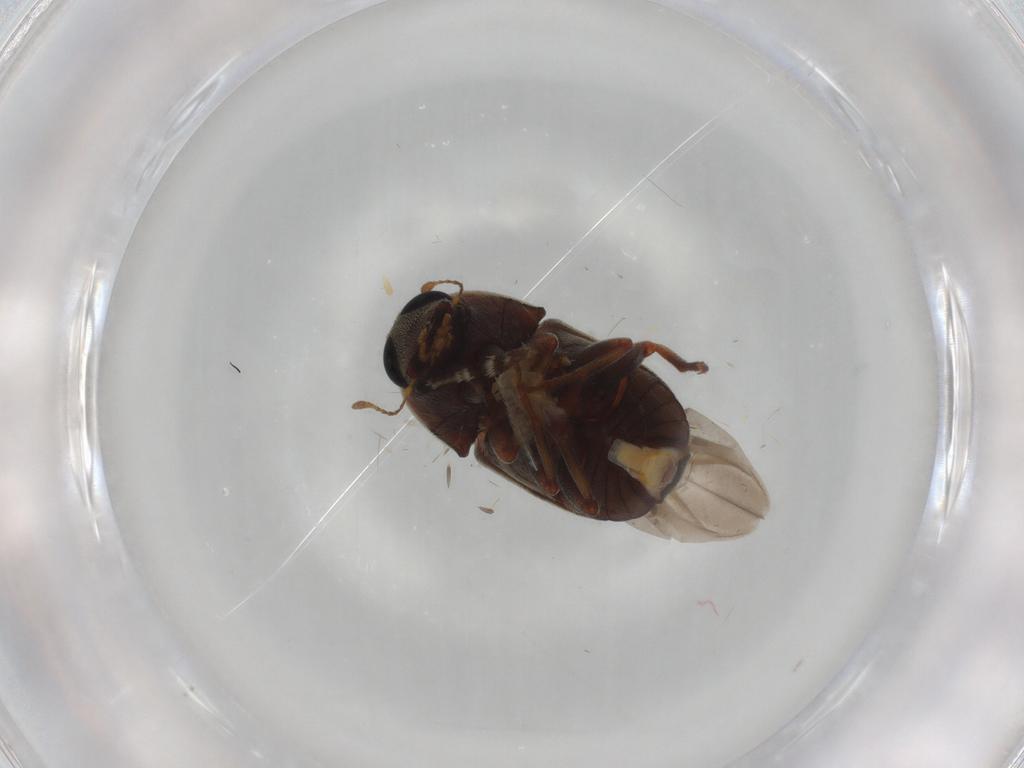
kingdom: Animalia
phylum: Arthropoda
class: Insecta
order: Coleoptera
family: Anthribidae
